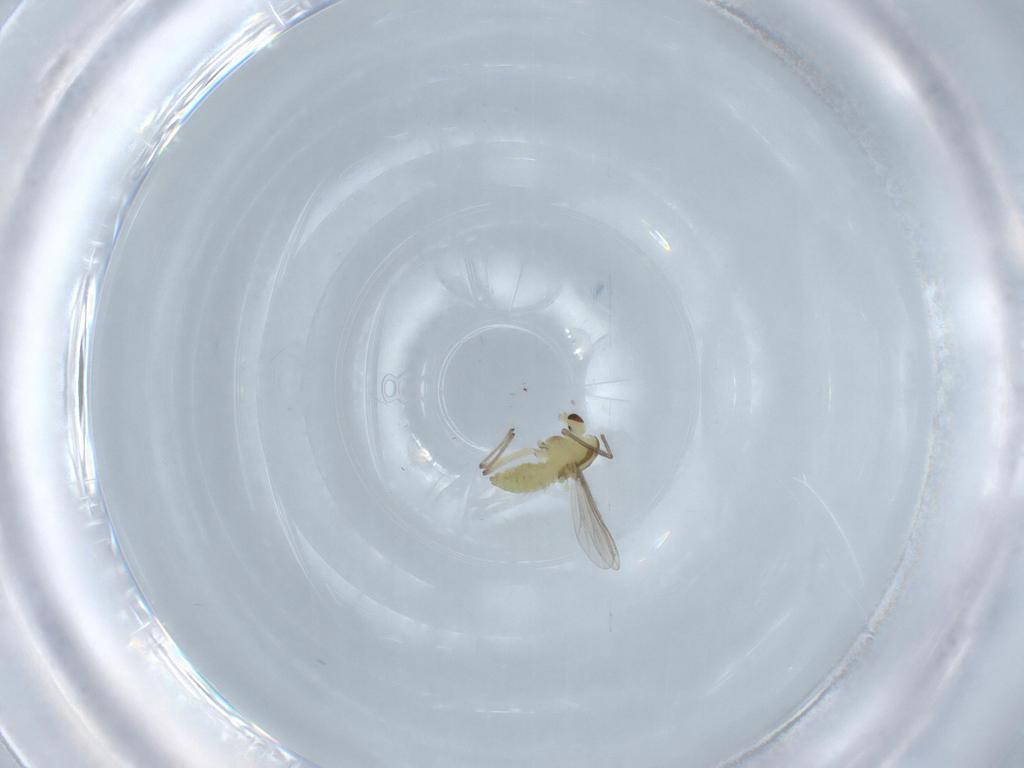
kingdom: Animalia
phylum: Arthropoda
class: Insecta
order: Diptera
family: Chironomidae
